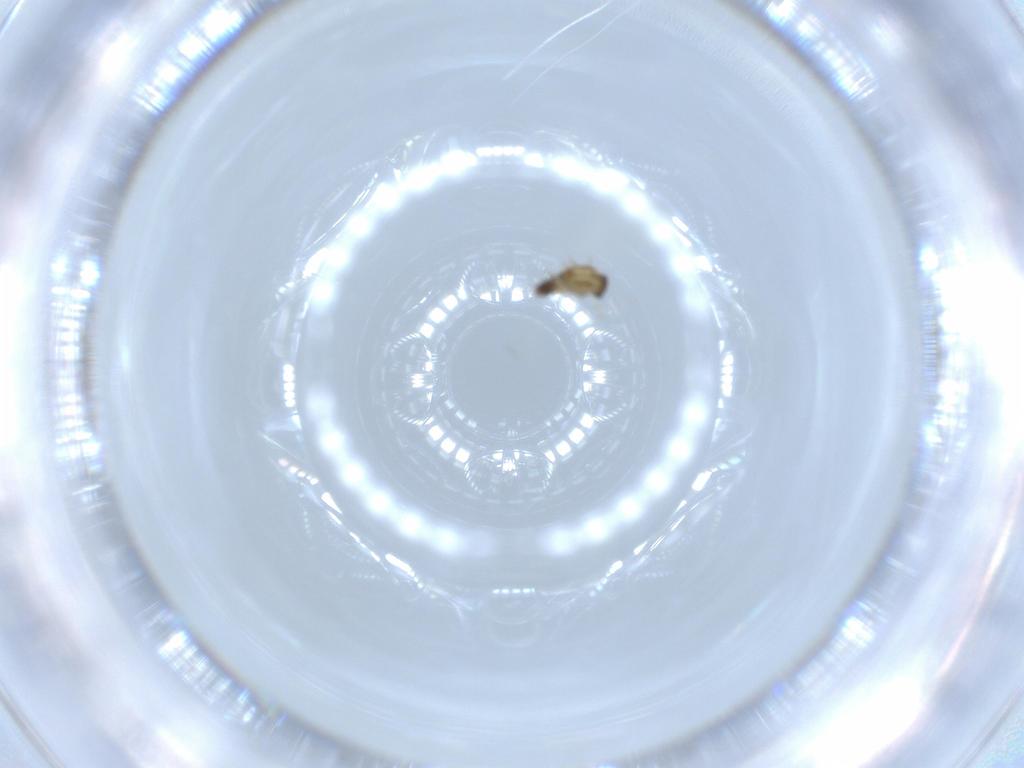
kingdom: Animalia
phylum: Arthropoda
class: Insecta
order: Diptera
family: Chironomidae
